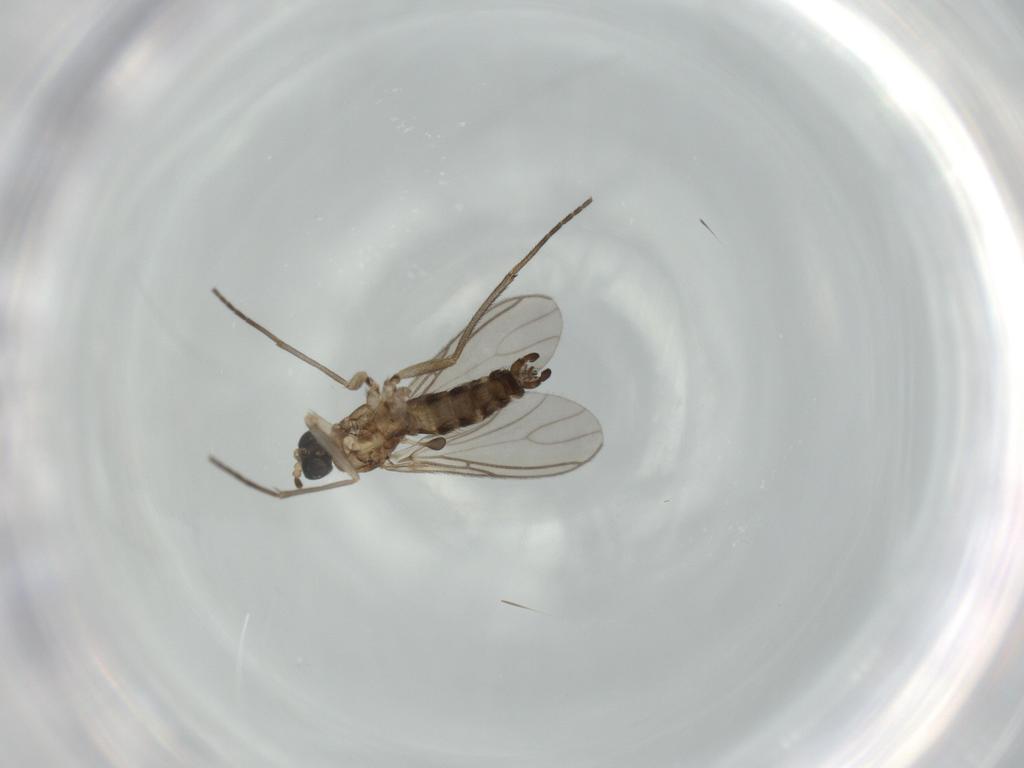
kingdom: Animalia
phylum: Arthropoda
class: Insecta
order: Diptera
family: Sciaridae
